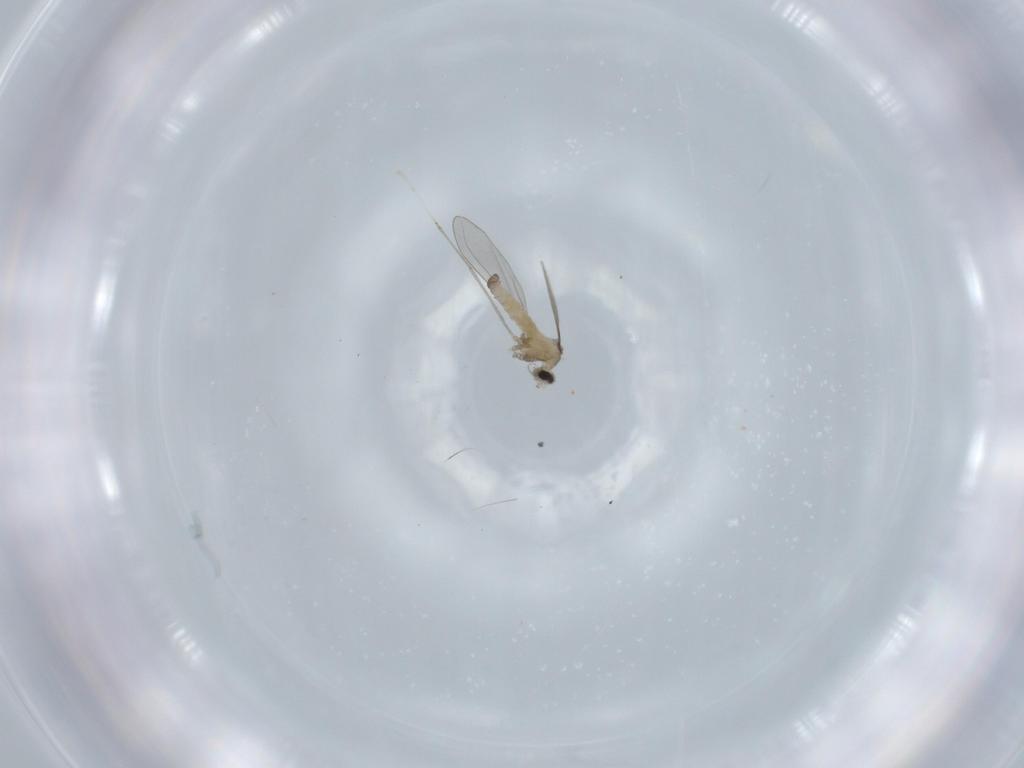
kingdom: Animalia
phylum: Arthropoda
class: Insecta
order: Diptera
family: Cecidomyiidae
